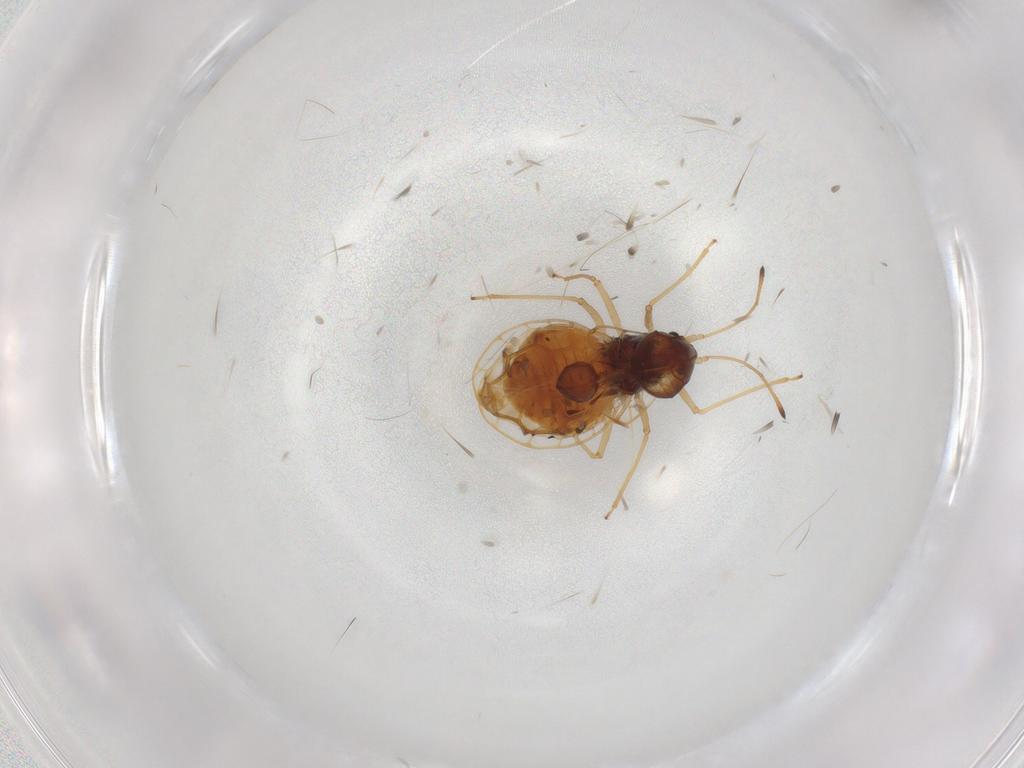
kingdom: Animalia
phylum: Arthropoda
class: Insecta
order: Hemiptera
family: Tingidae
